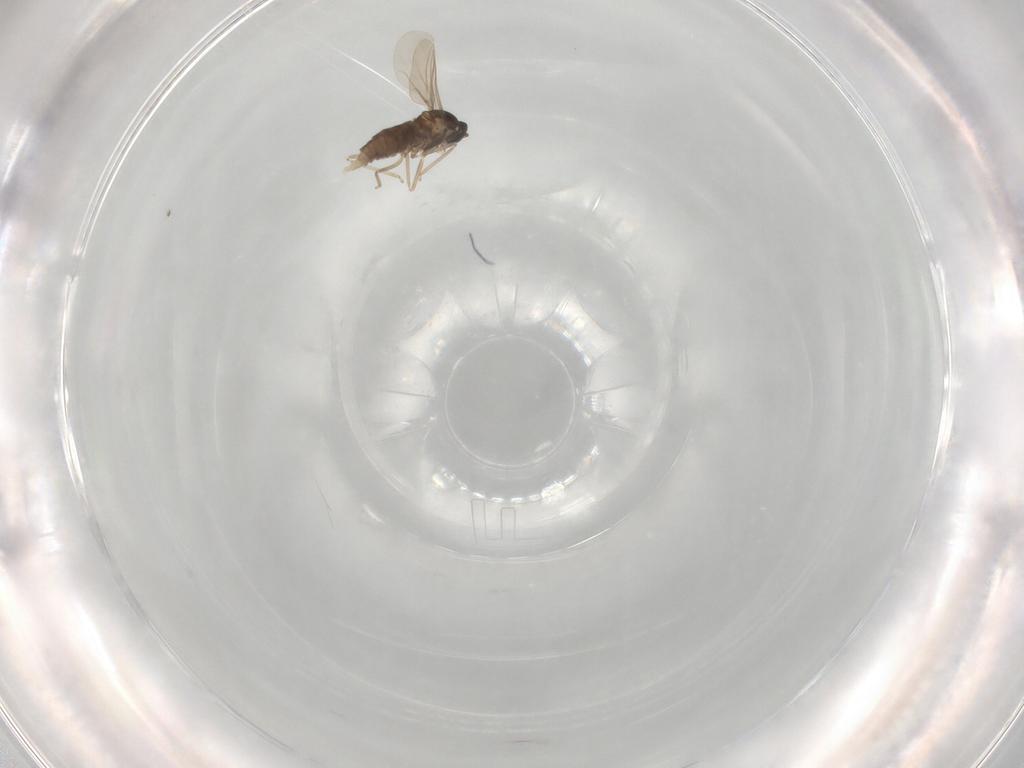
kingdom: Animalia
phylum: Arthropoda
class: Insecta
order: Diptera
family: Cecidomyiidae
